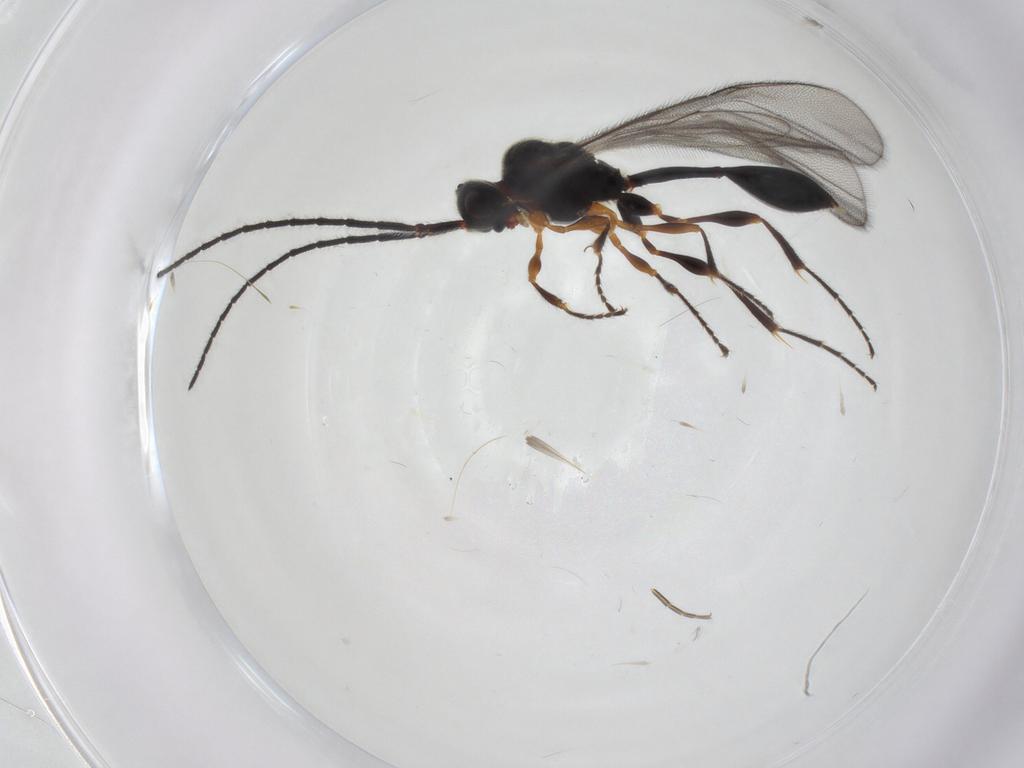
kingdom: Animalia
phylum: Arthropoda
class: Insecta
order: Hymenoptera
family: Diapriidae
